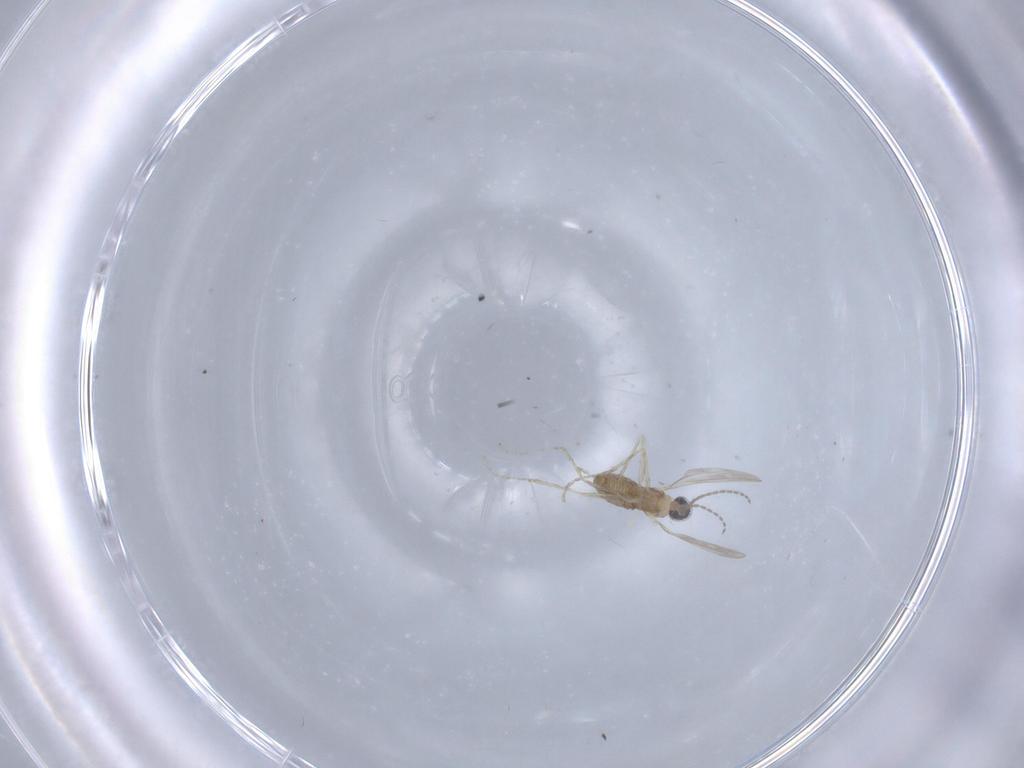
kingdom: Animalia
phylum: Arthropoda
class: Insecta
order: Diptera
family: Cecidomyiidae
